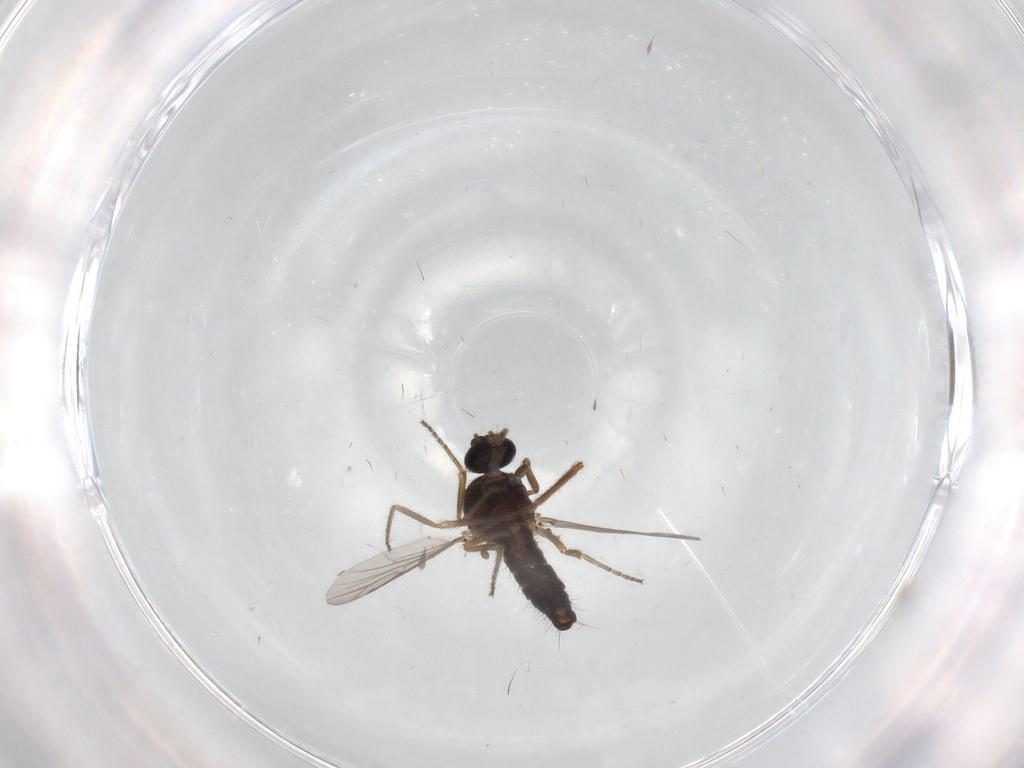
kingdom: Animalia
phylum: Arthropoda
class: Insecta
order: Diptera
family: Ceratopogonidae
